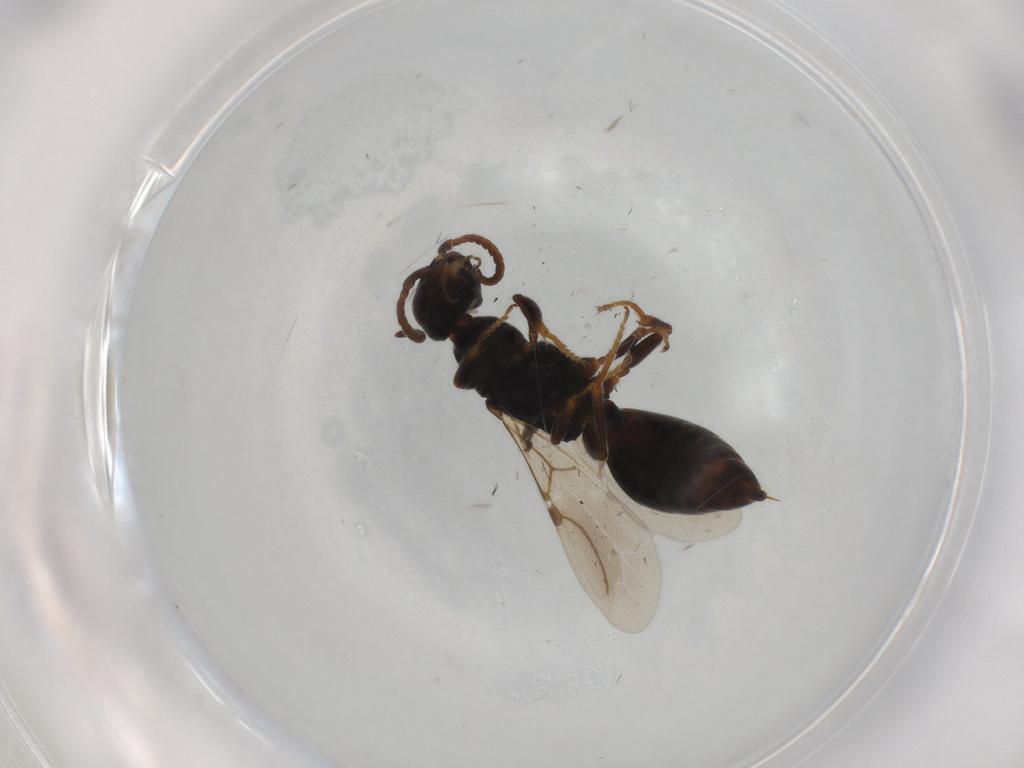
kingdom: Animalia
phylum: Arthropoda
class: Insecta
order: Hymenoptera
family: Bethylidae
